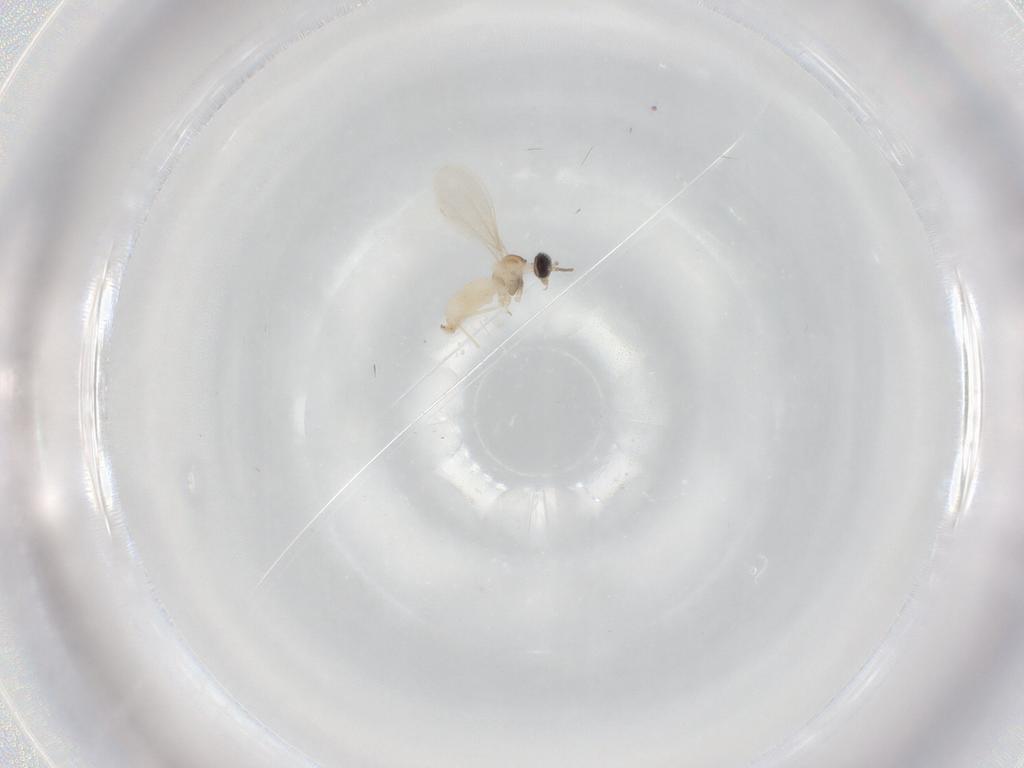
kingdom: Animalia
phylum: Arthropoda
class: Insecta
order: Diptera
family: Cecidomyiidae
